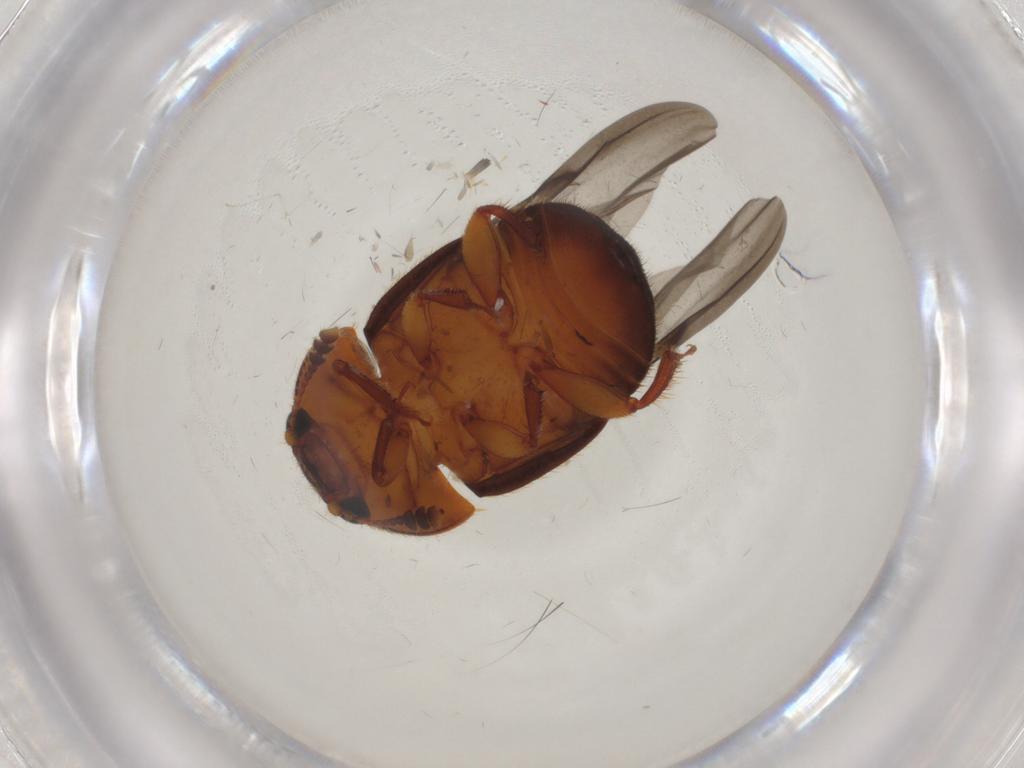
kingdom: Animalia
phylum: Arthropoda
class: Insecta
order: Coleoptera
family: Nitidulidae
